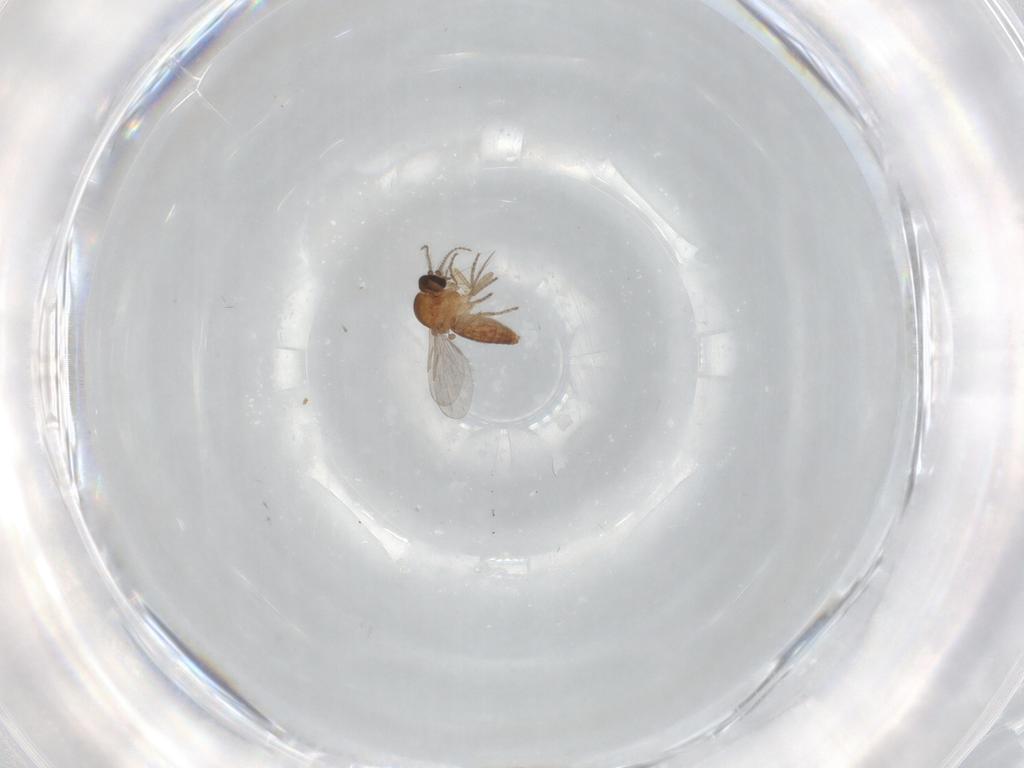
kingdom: Animalia
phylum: Arthropoda
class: Insecta
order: Diptera
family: Ceratopogonidae
